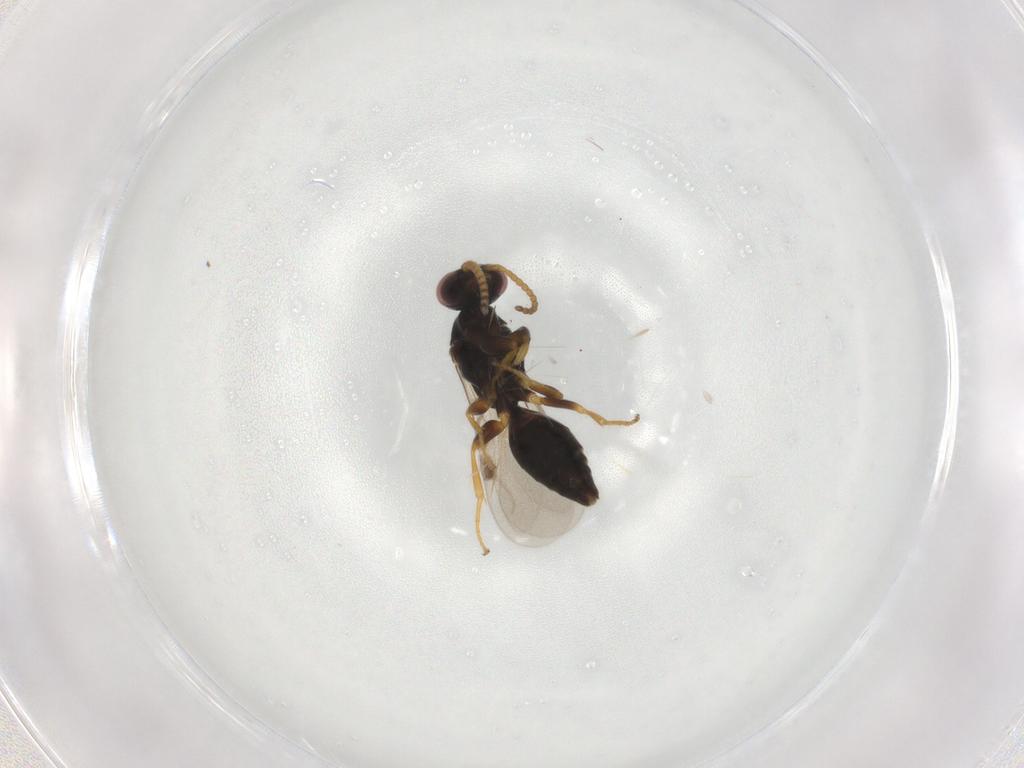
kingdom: Animalia
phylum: Arthropoda
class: Insecta
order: Hymenoptera
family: Bethylidae
